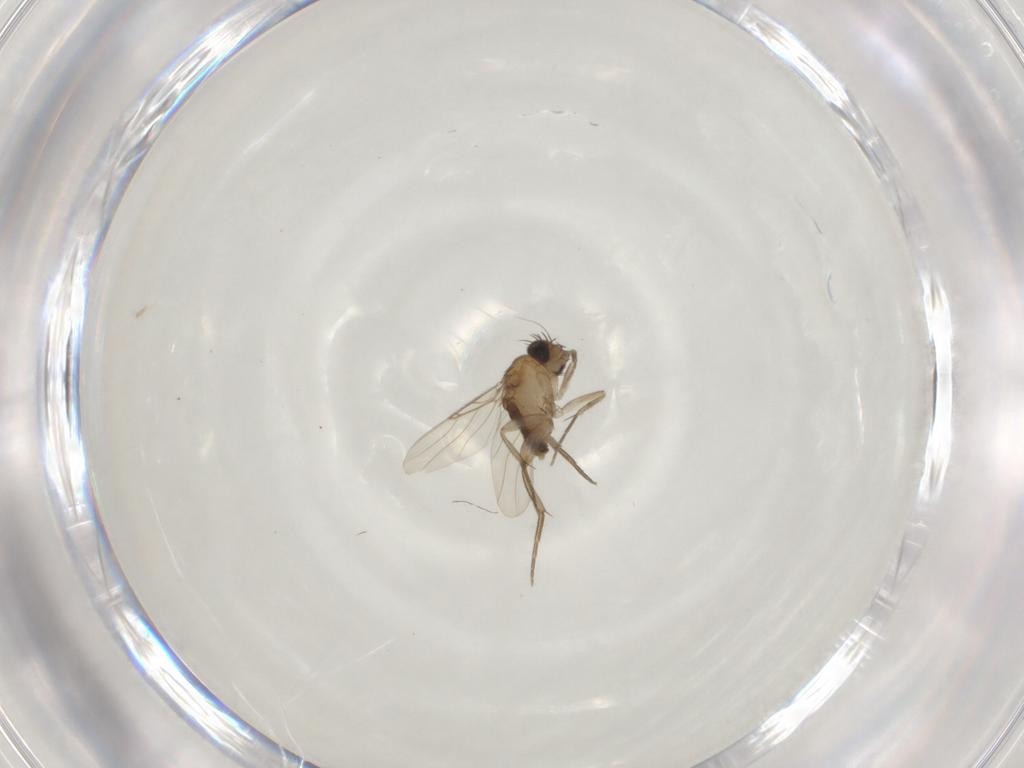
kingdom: Animalia
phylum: Arthropoda
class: Insecta
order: Diptera
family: Phoridae
